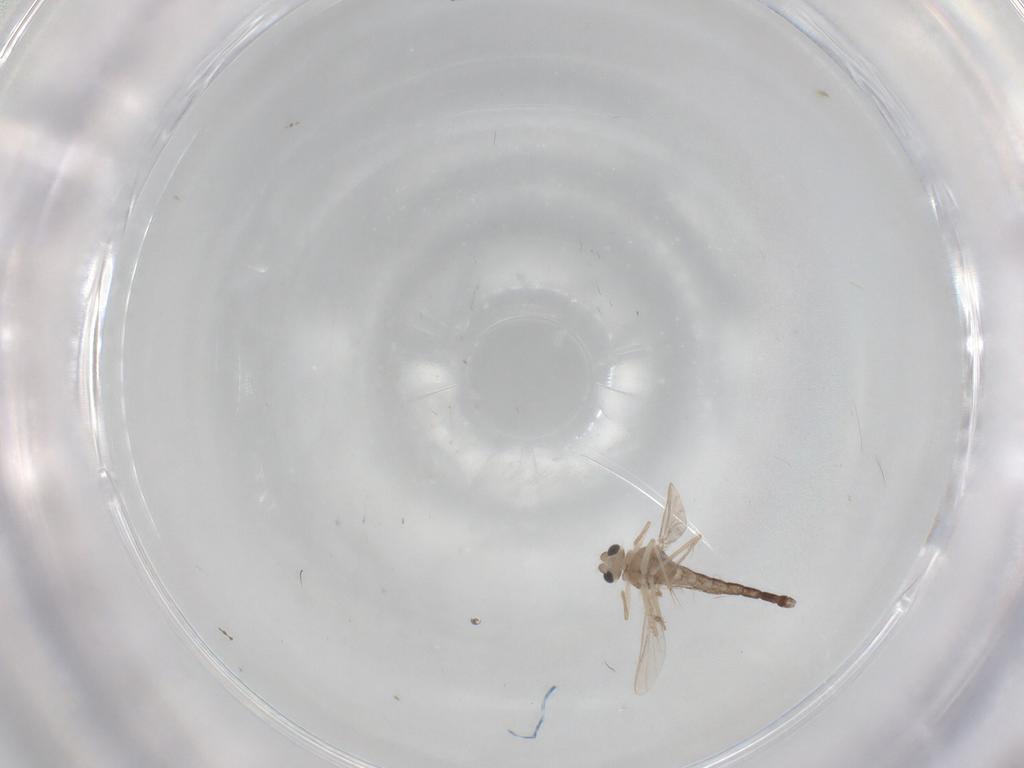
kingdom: Animalia
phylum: Arthropoda
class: Insecta
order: Diptera
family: Chironomidae
